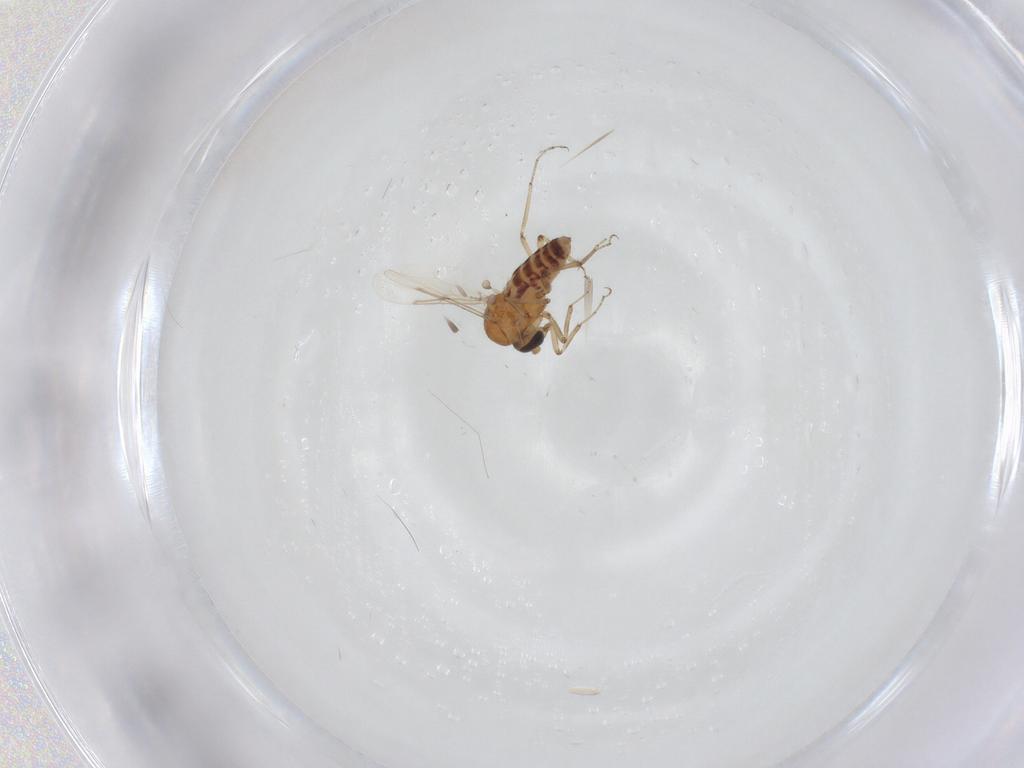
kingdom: Animalia
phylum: Arthropoda
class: Insecta
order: Diptera
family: Ceratopogonidae
